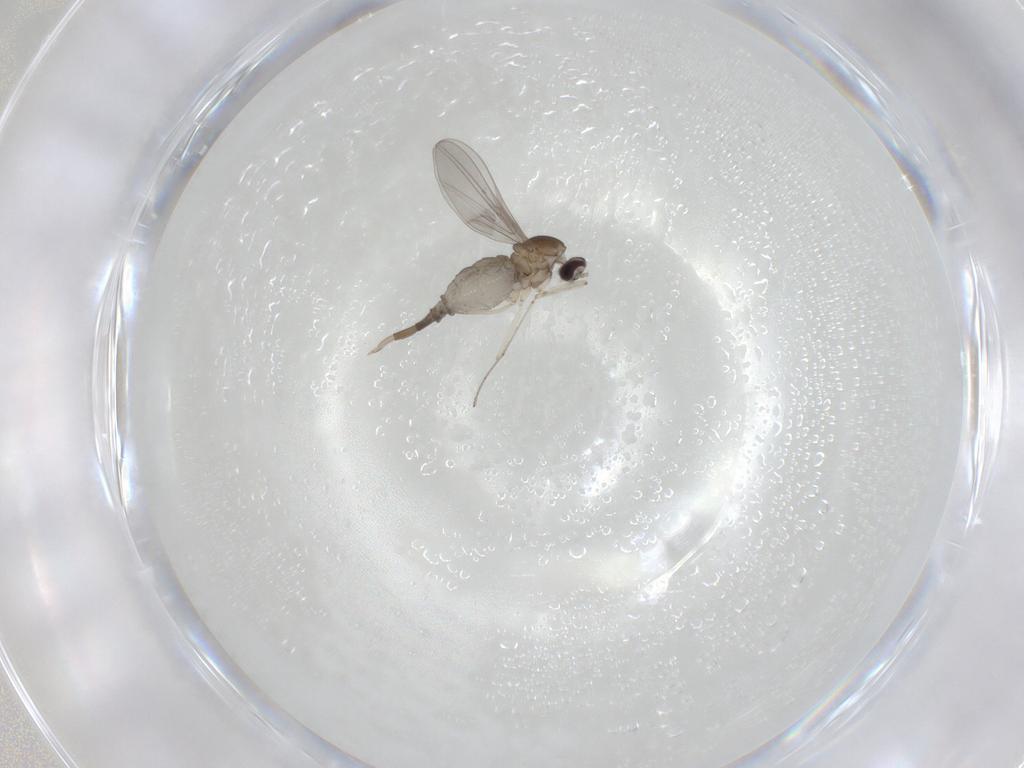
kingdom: Animalia
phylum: Arthropoda
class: Insecta
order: Diptera
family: Cecidomyiidae
